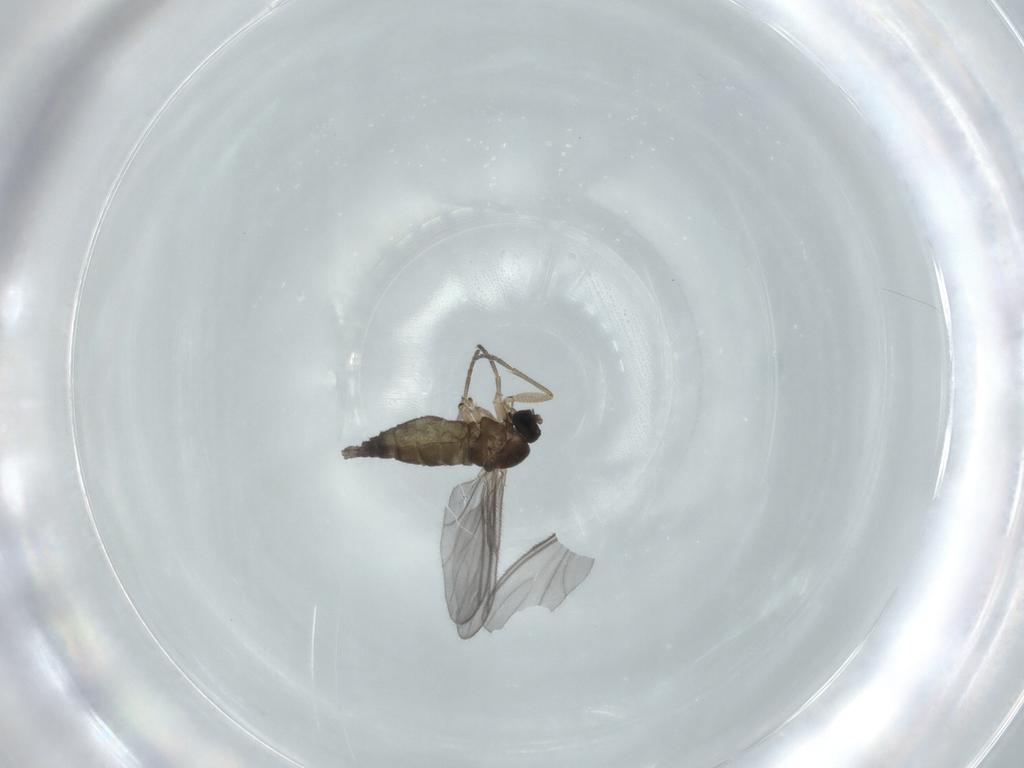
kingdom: Animalia
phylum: Arthropoda
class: Insecta
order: Diptera
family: Sciaridae
